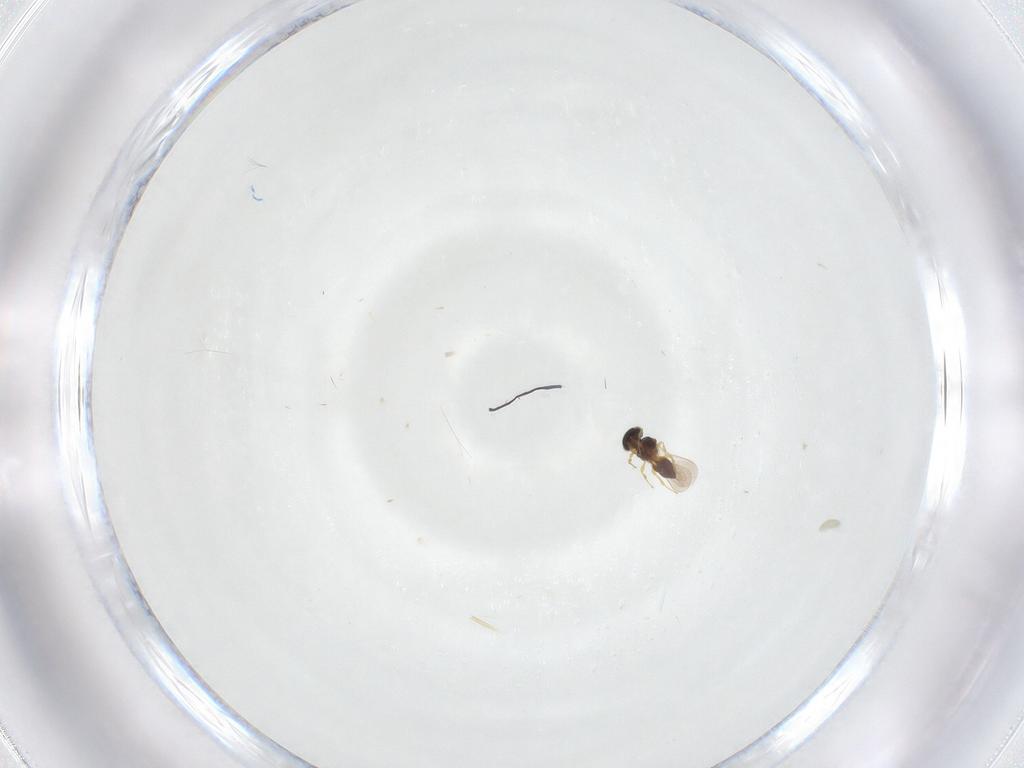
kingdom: Animalia
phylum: Arthropoda
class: Insecta
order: Hymenoptera
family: Platygastridae
